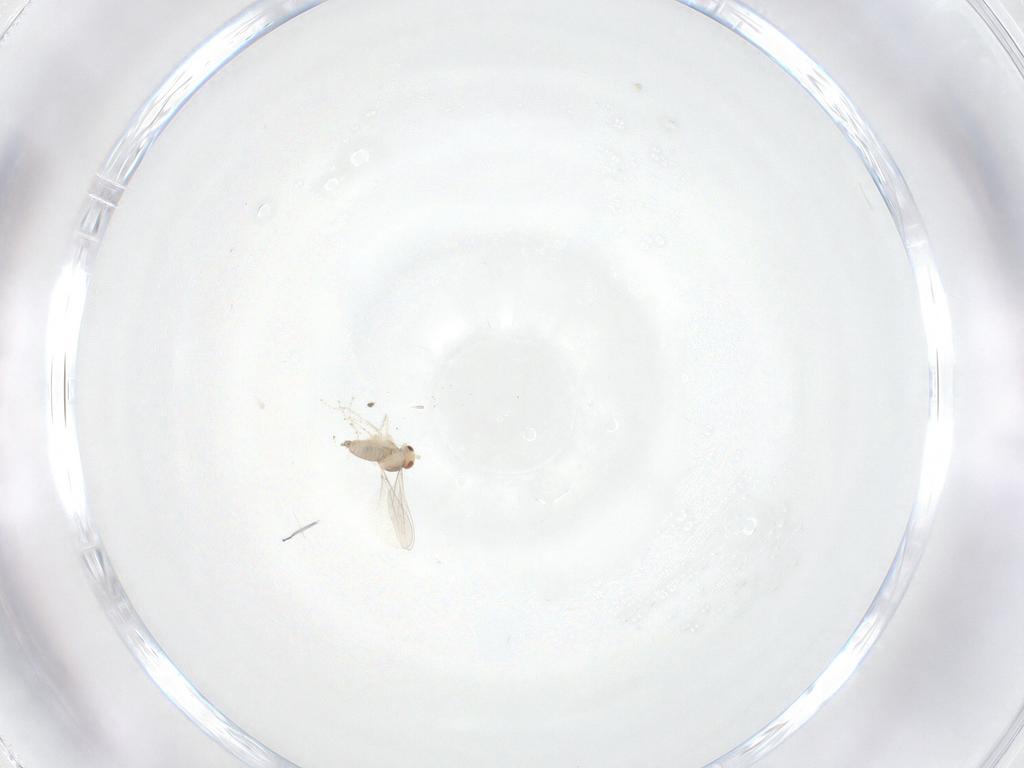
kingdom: Animalia
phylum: Arthropoda
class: Insecta
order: Diptera
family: Cecidomyiidae
